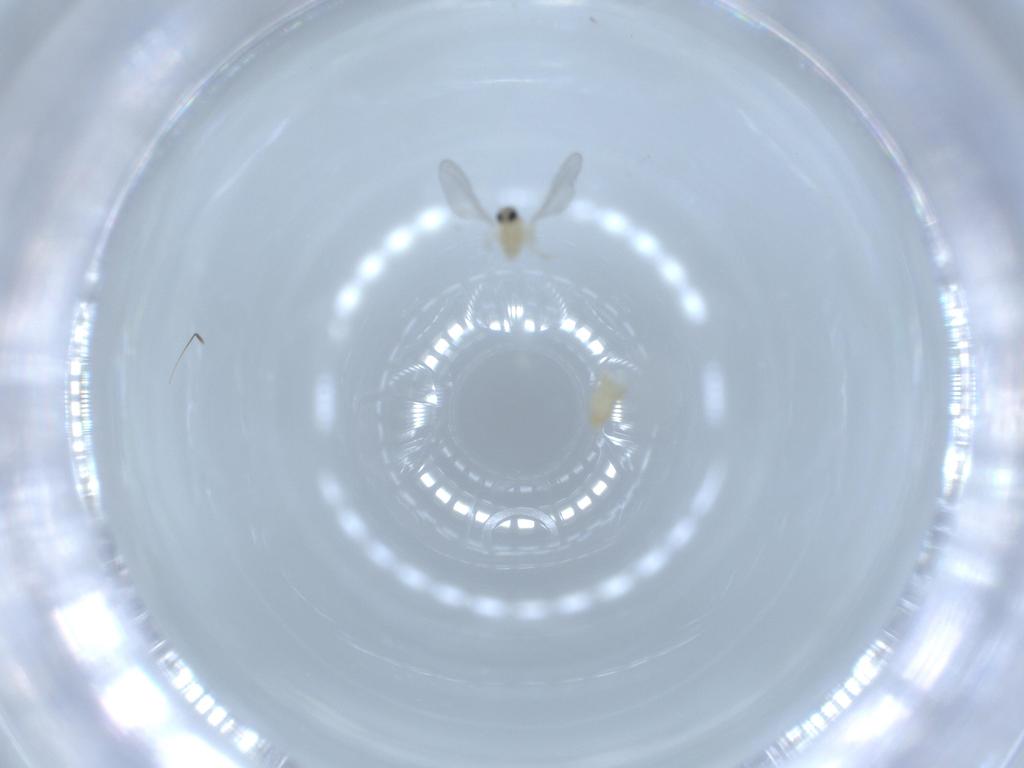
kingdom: Animalia
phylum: Arthropoda
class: Insecta
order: Diptera
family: Cecidomyiidae
